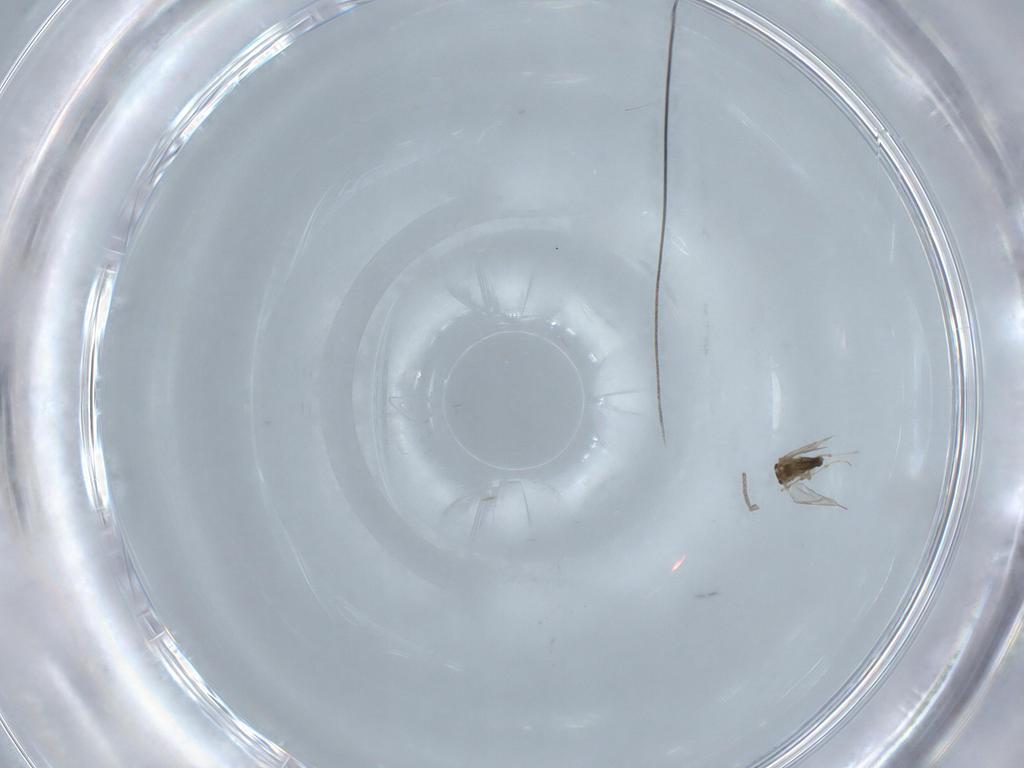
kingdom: Animalia
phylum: Arthropoda
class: Insecta
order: Diptera
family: Chironomidae
